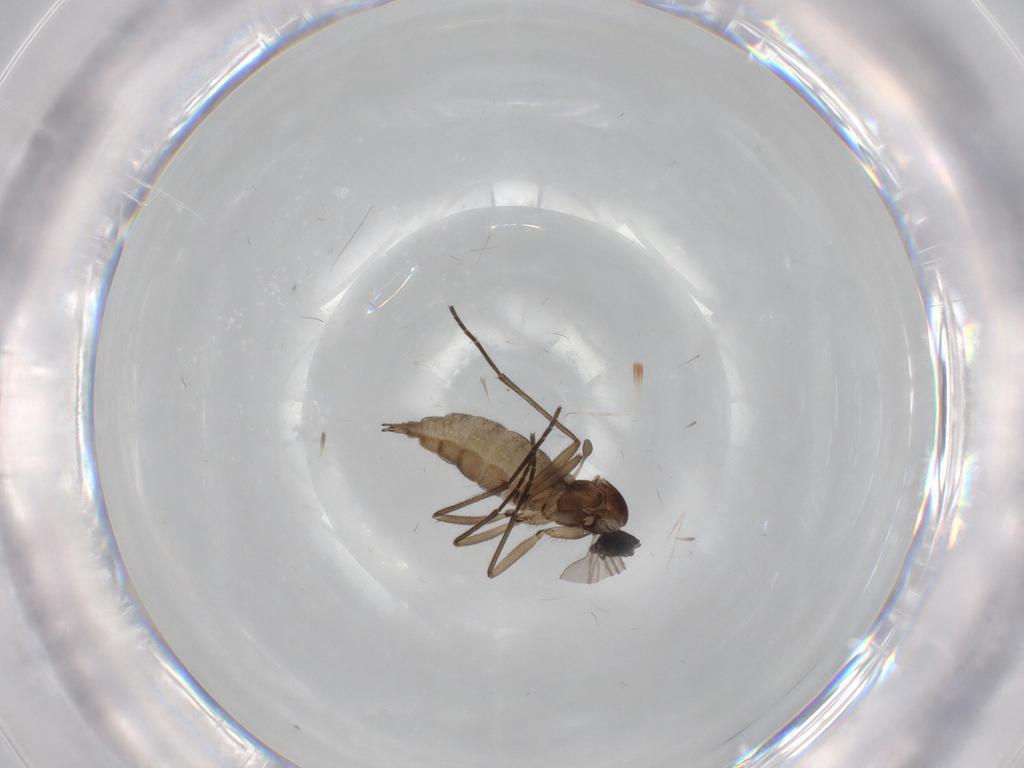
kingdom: Animalia
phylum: Arthropoda
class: Insecta
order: Diptera
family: Sciaridae
